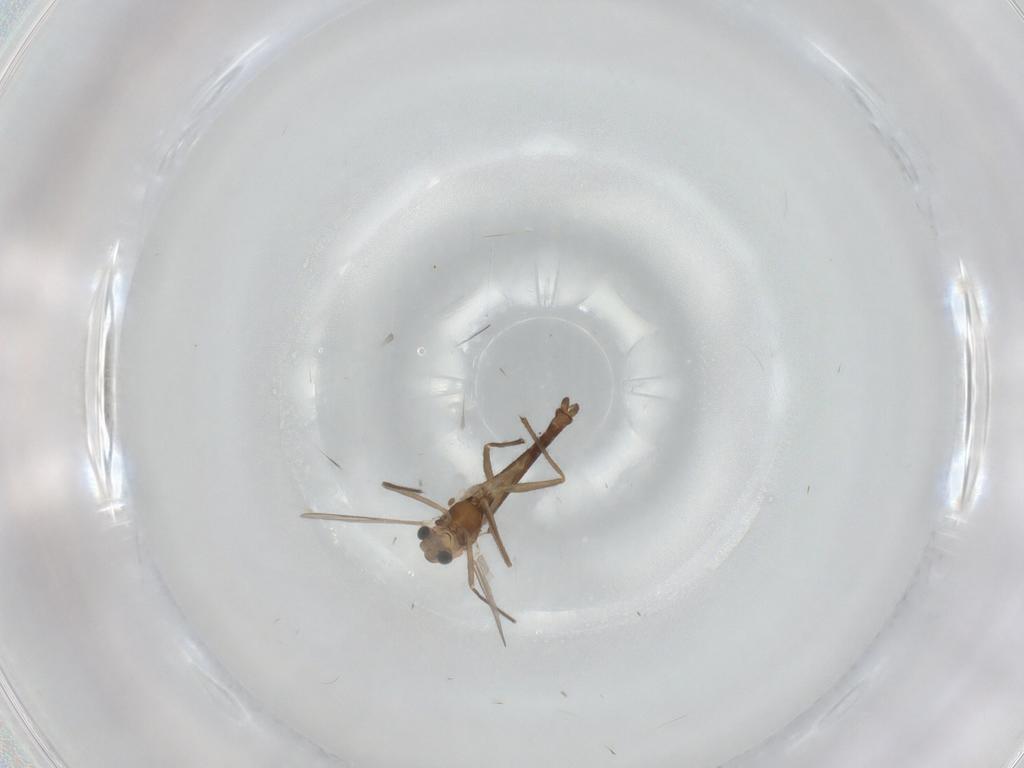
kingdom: Animalia
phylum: Arthropoda
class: Insecta
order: Diptera
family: Chironomidae
